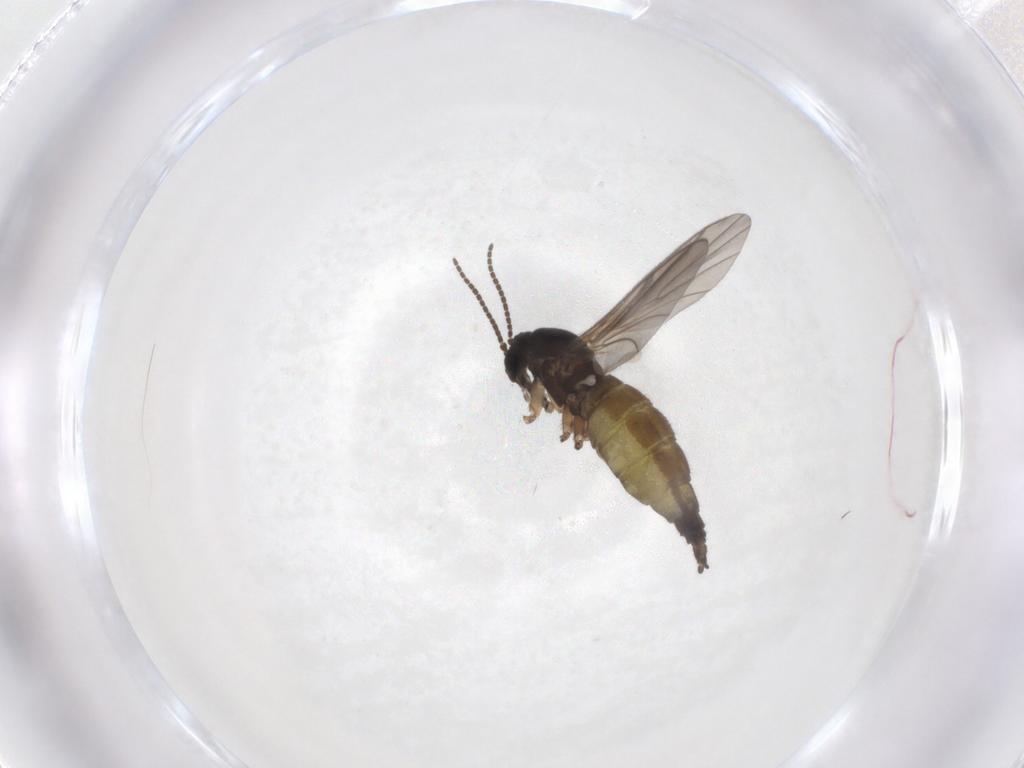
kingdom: Animalia
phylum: Arthropoda
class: Insecta
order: Diptera
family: Sciaridae
